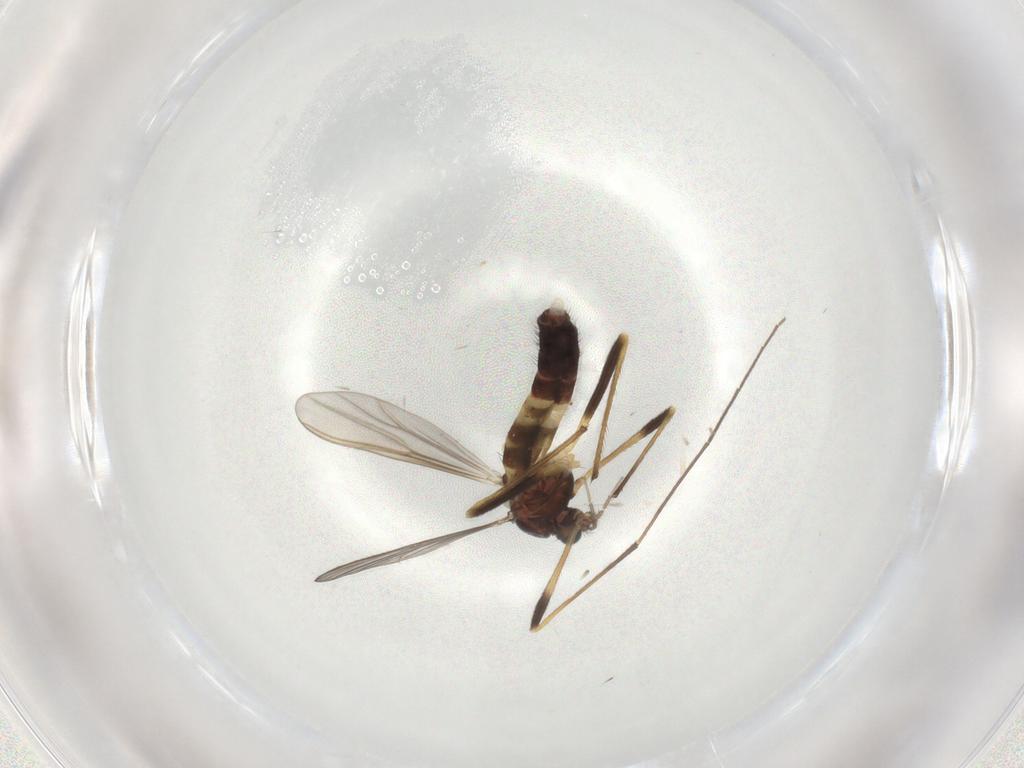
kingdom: Animalia
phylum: Arthropoda
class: Insecta
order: Diptera
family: Chironomidae
